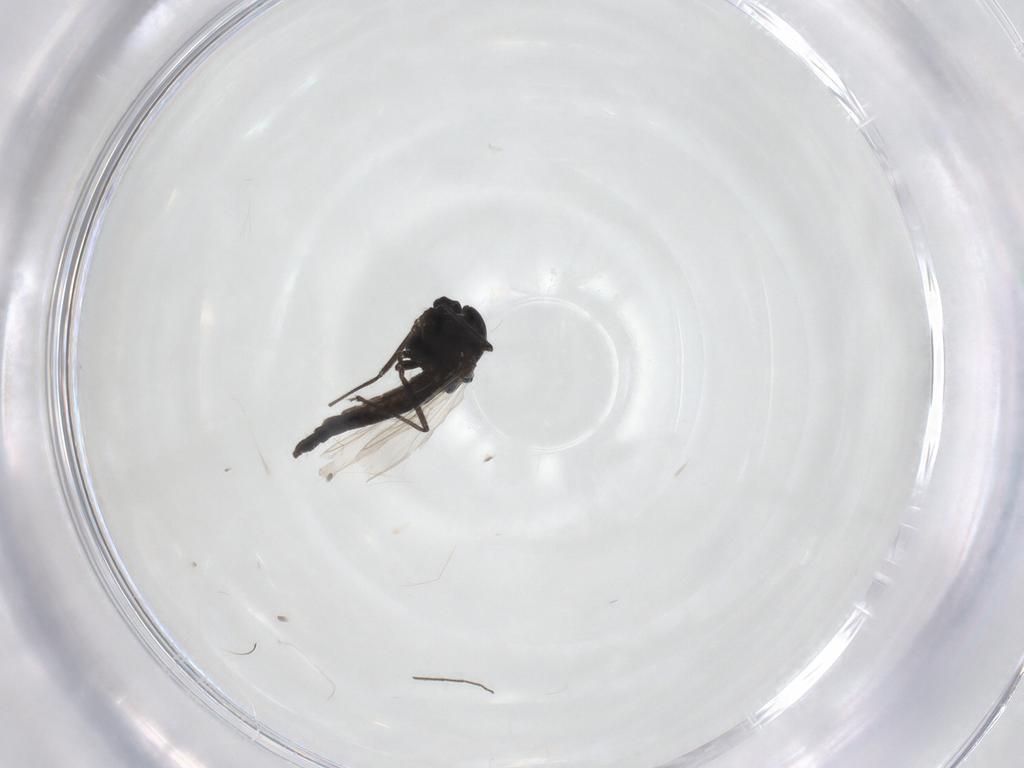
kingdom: Animalia
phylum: Arthropoda
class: Insecta
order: Diptera
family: Chironomidae
